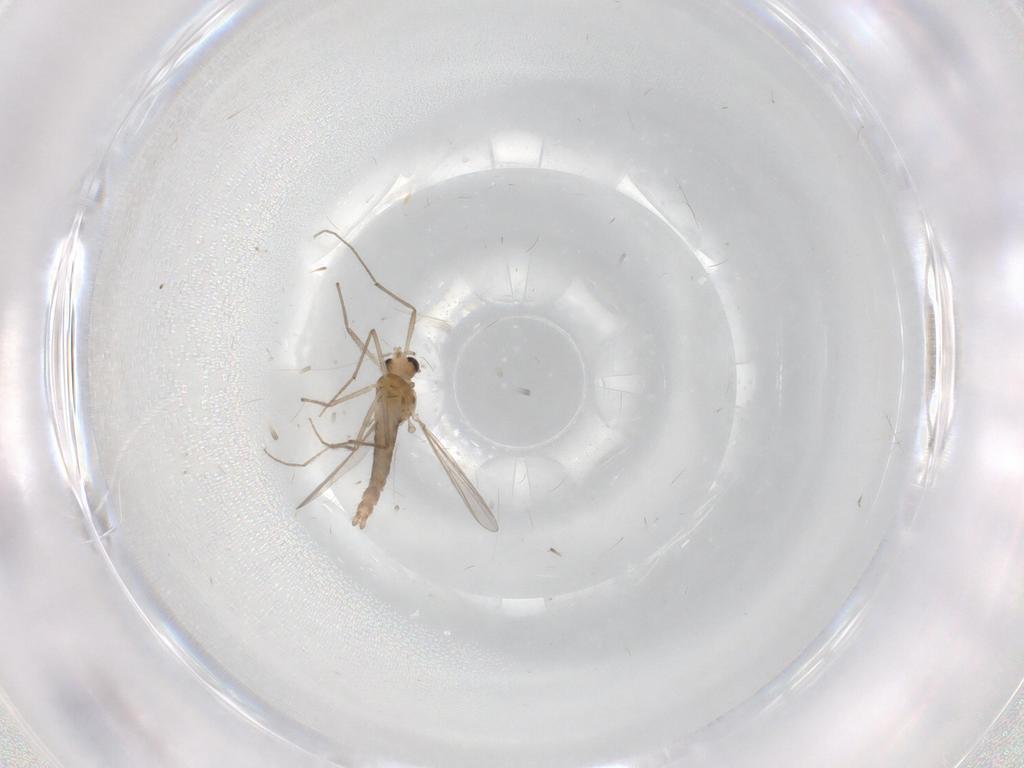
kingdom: Animalia
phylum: Arthropoda
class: Insecta
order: Diptera
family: Chironomidae
